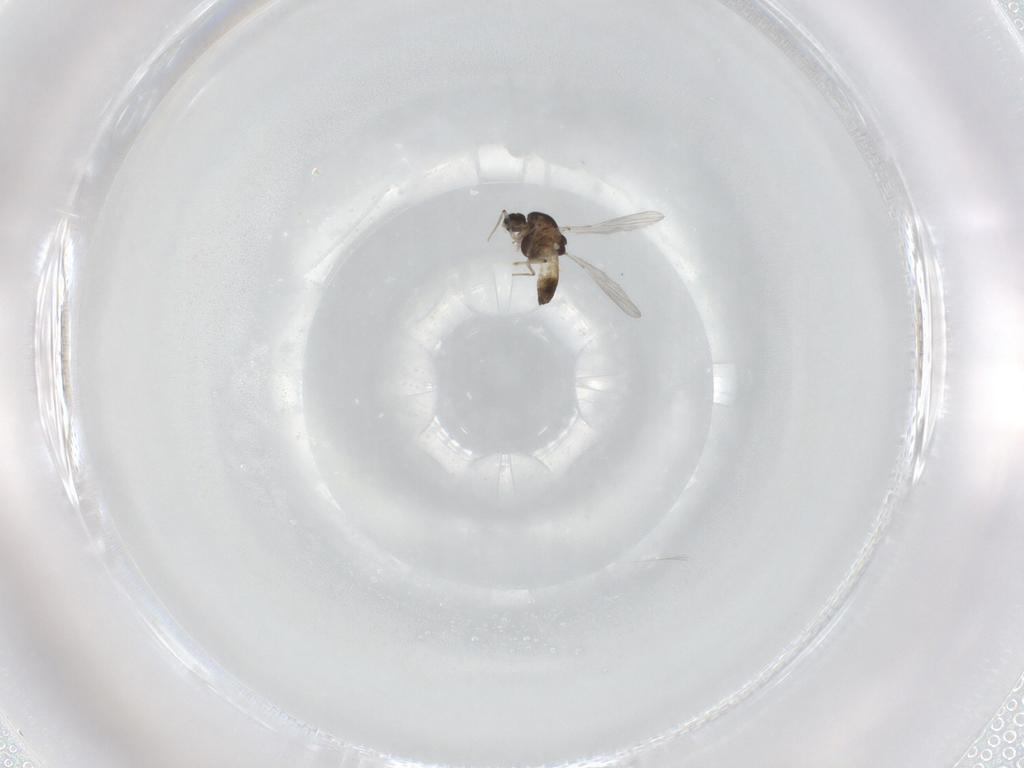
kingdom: Animalia
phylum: Arthropoda
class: Insecta
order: Diptera
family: Chironomidae
